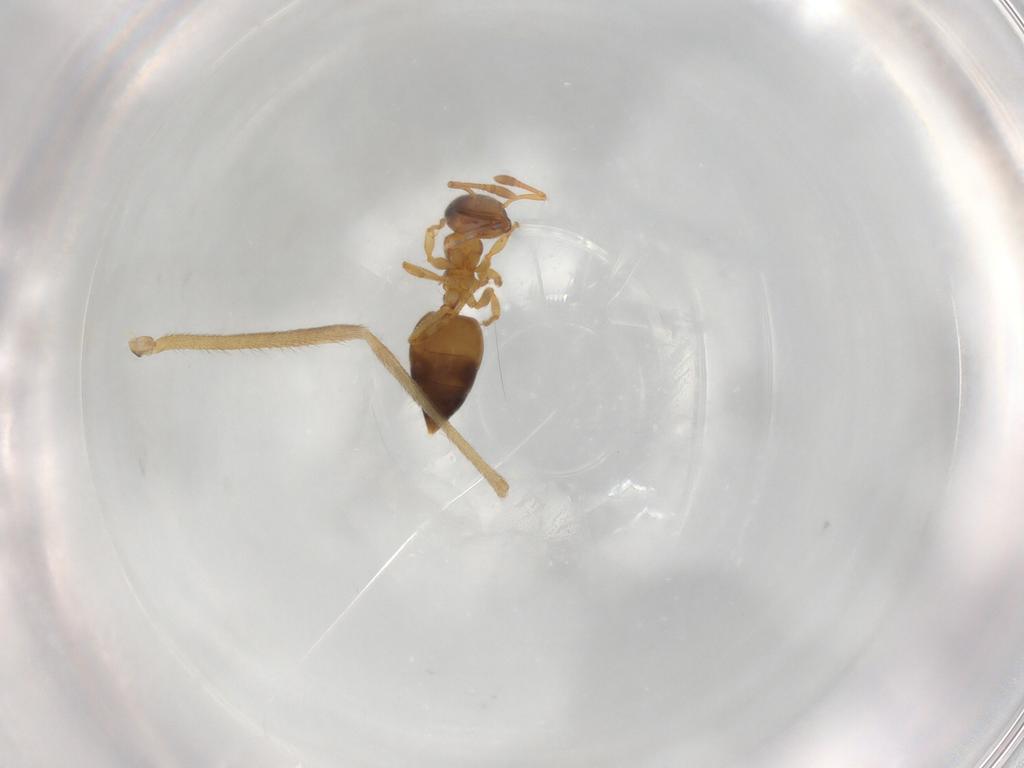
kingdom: Animalia
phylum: Arthropoda
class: Insecta
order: Hymenoptera
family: Formicidae
